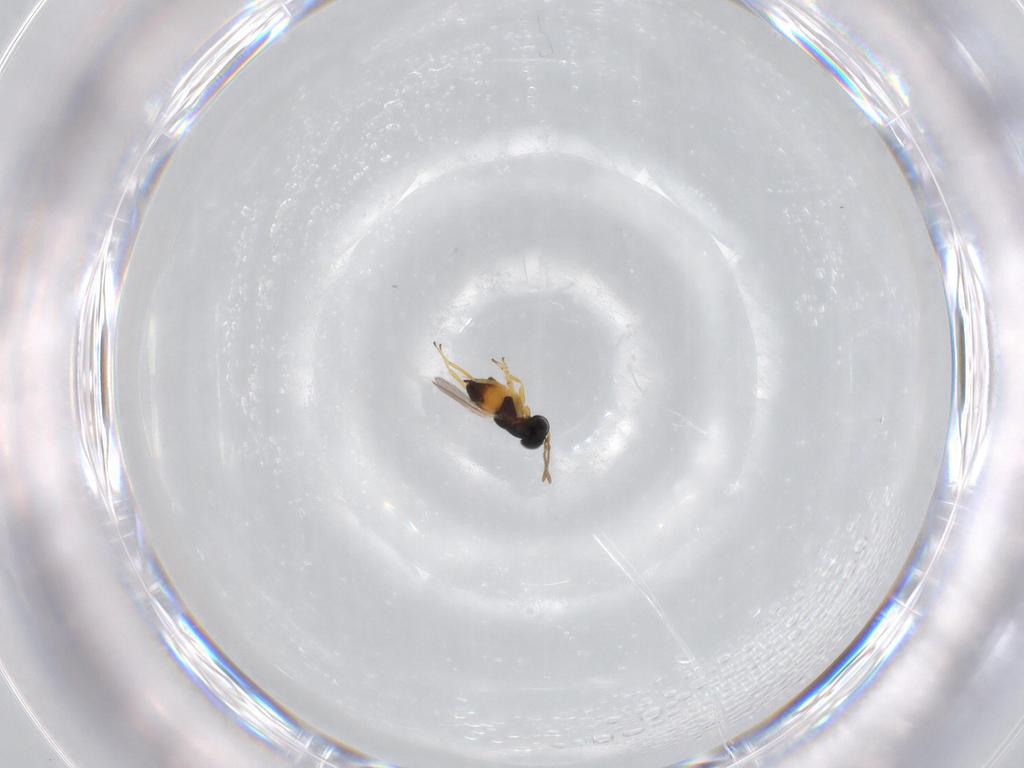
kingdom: Animalia
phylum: Arthropoda
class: Insecta
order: Hymenoptera
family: Encyrtidae
